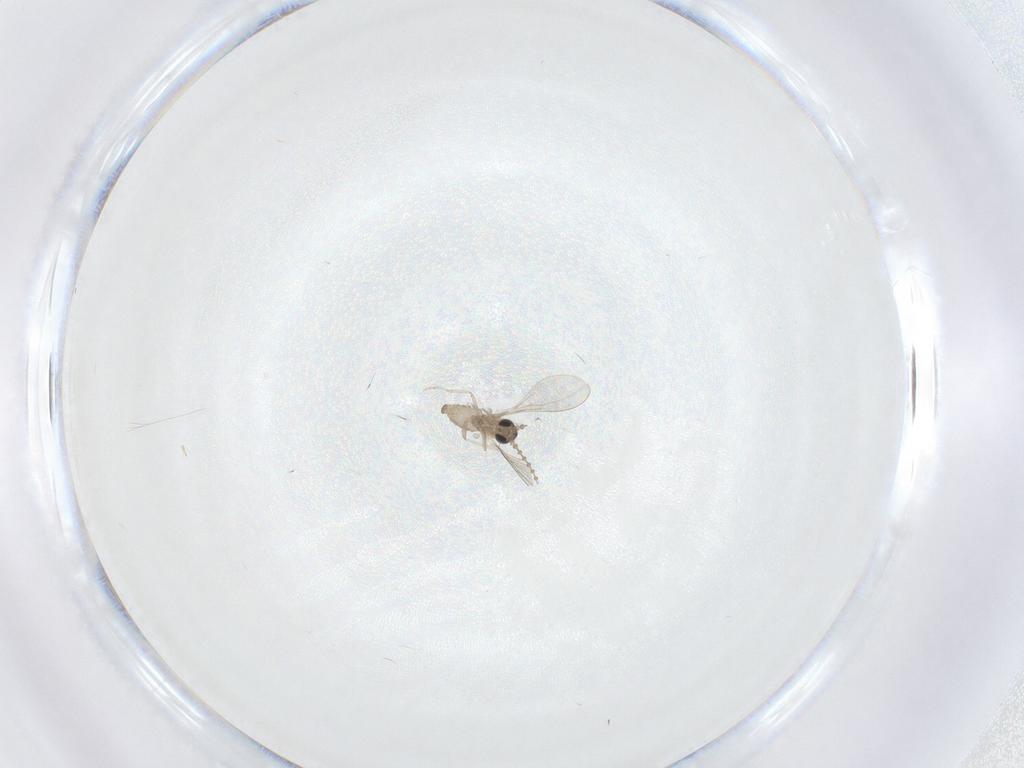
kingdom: Animalia
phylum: Arthropoda
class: Insecta
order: Diptera
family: Cecidomyiidae
